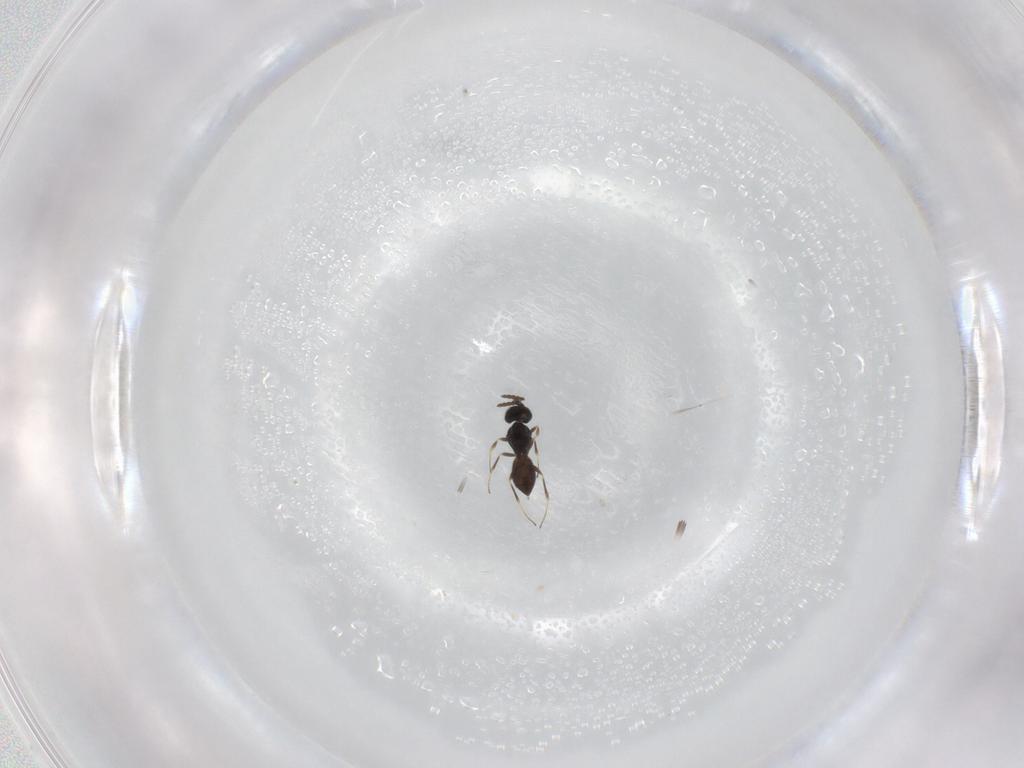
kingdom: Animalia
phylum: Arthropoda
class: Insecta
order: Hymenoptera
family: Scelionidae
